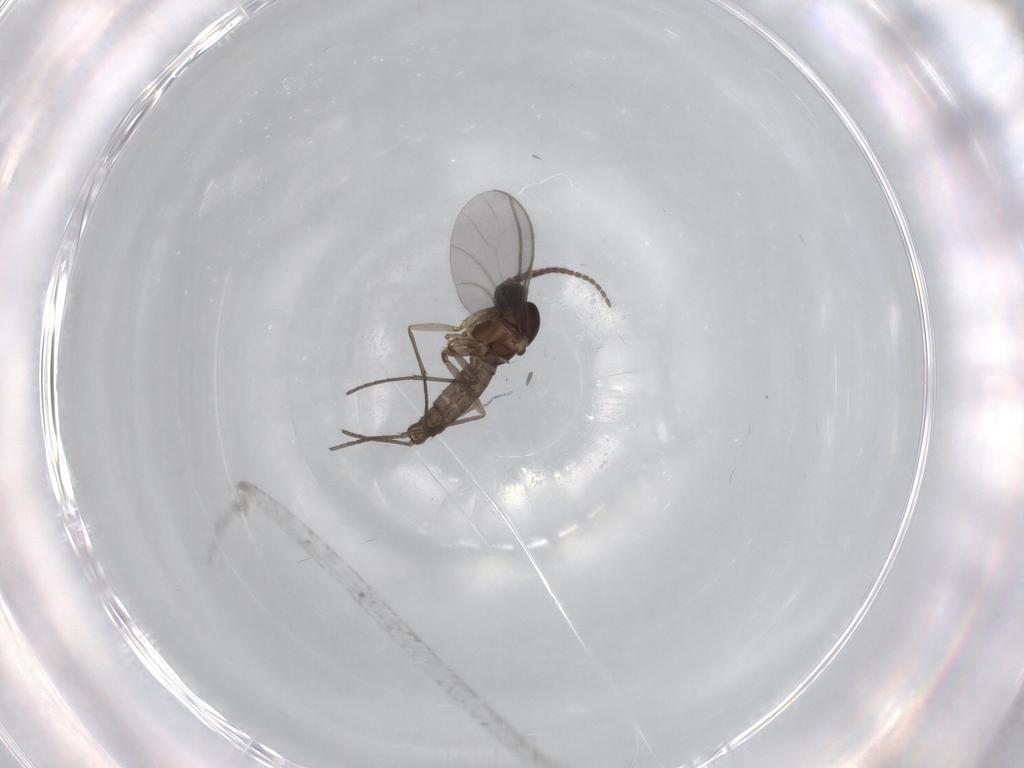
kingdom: Animalia
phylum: Arthropoda
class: Insecta
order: Diptera
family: Sciaridae
